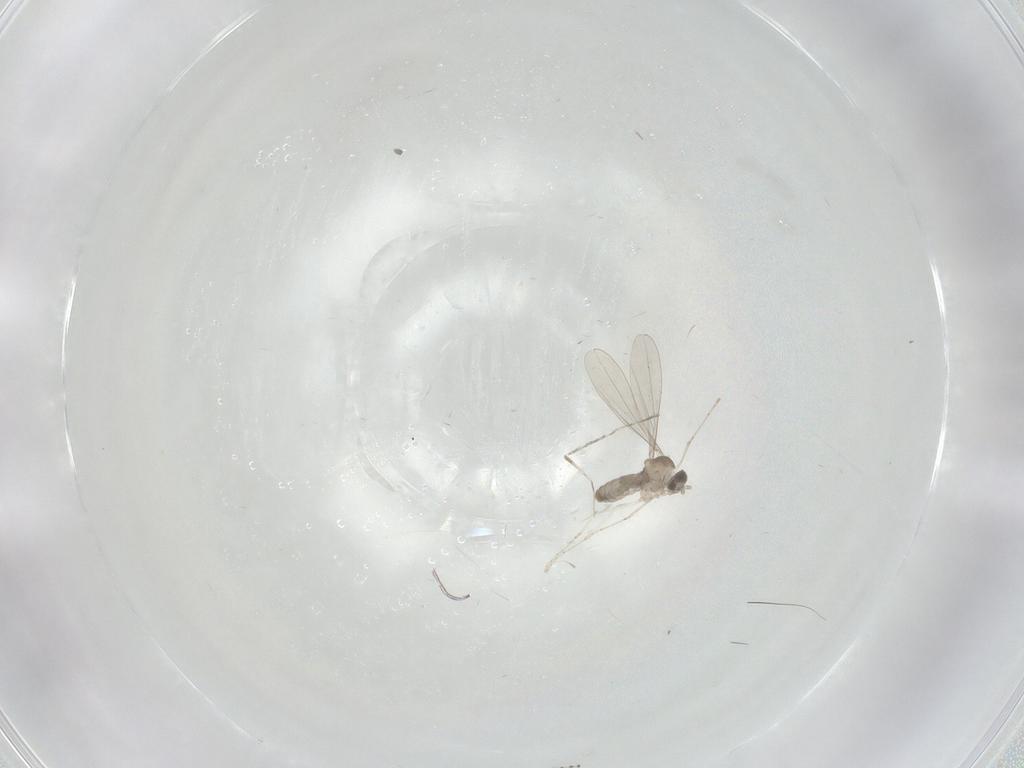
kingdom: Animalia
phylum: Arthropoda
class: Insecta
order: Diptera
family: Cecidomyiidae
